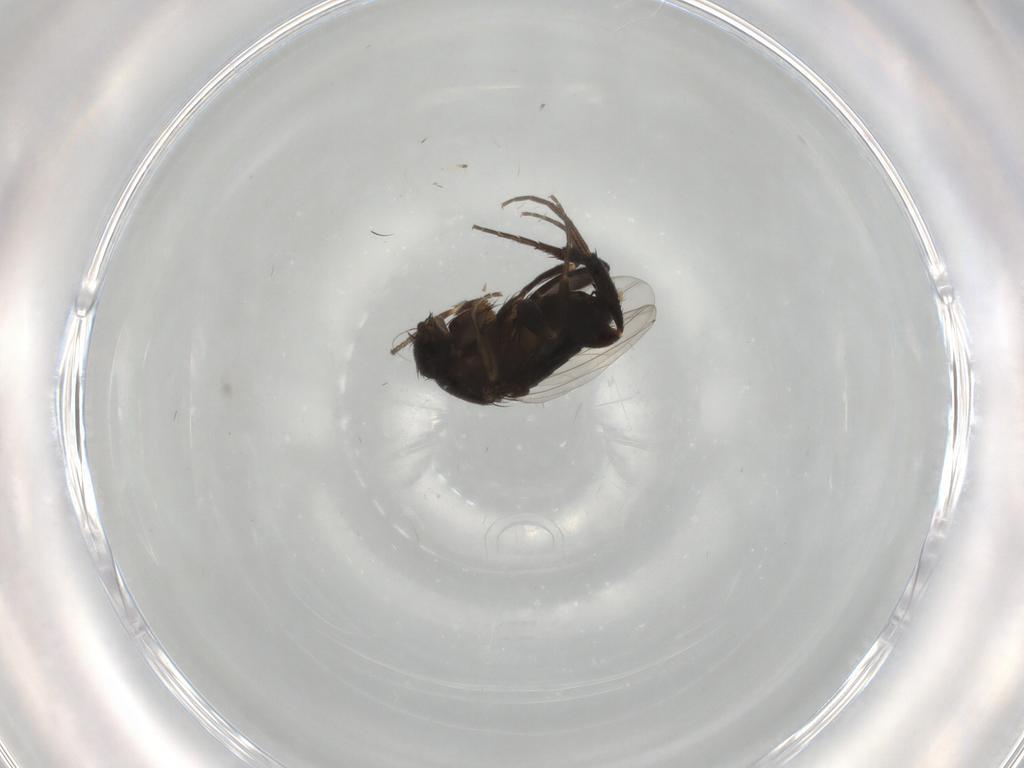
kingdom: Animalia
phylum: Arthropoda
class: Insecta
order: Diptera
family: Phoridae
